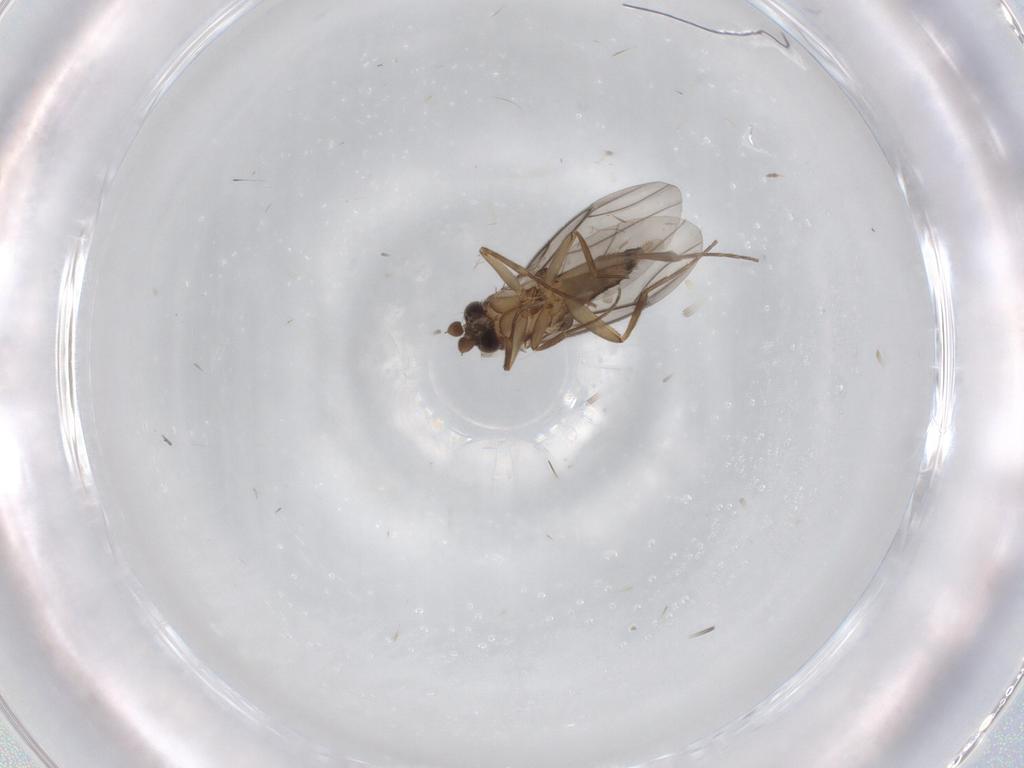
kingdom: Animalia
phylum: Arthropoda
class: Insecta
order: Diptera
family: Phoridae
